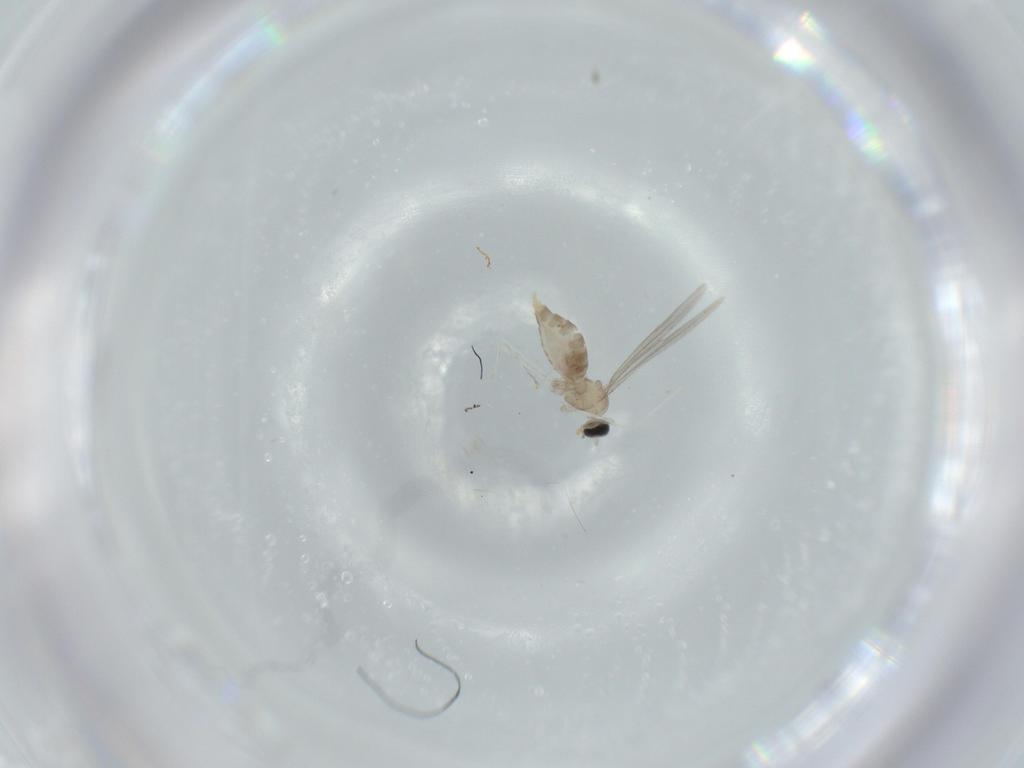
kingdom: Animalia
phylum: Arthropoda
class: Insecta
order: Diptera
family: Cecidomyiidae
